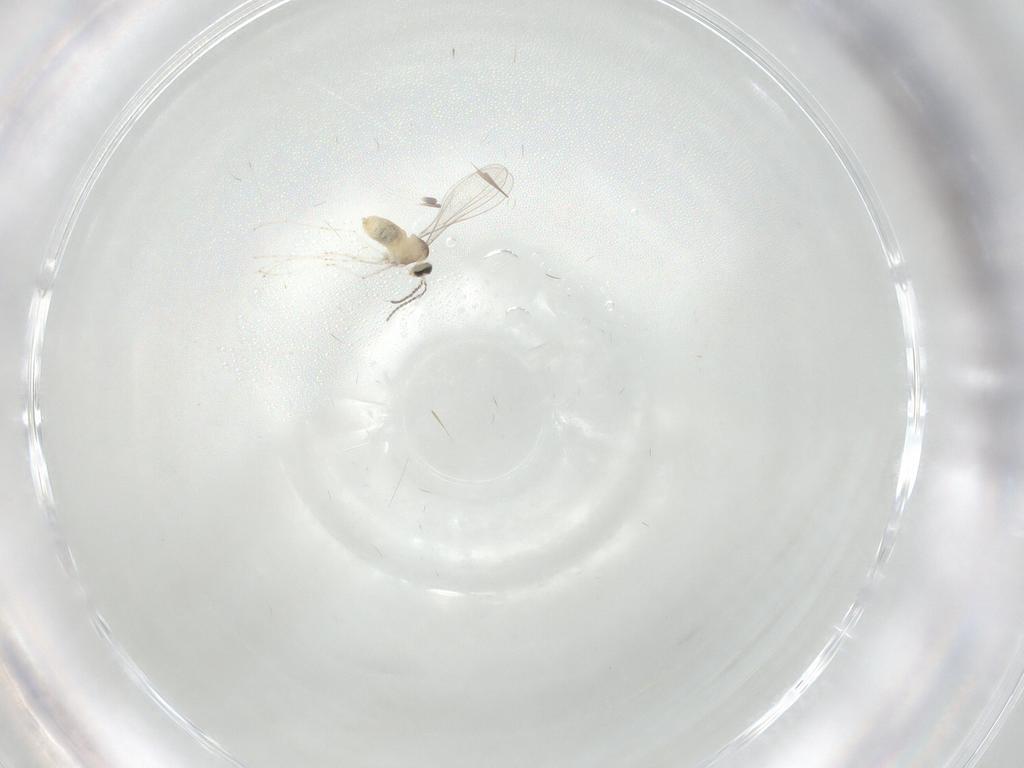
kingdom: Animalia
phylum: Arthropoda
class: Insecta
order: Diptera
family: Cecidomyiidae
